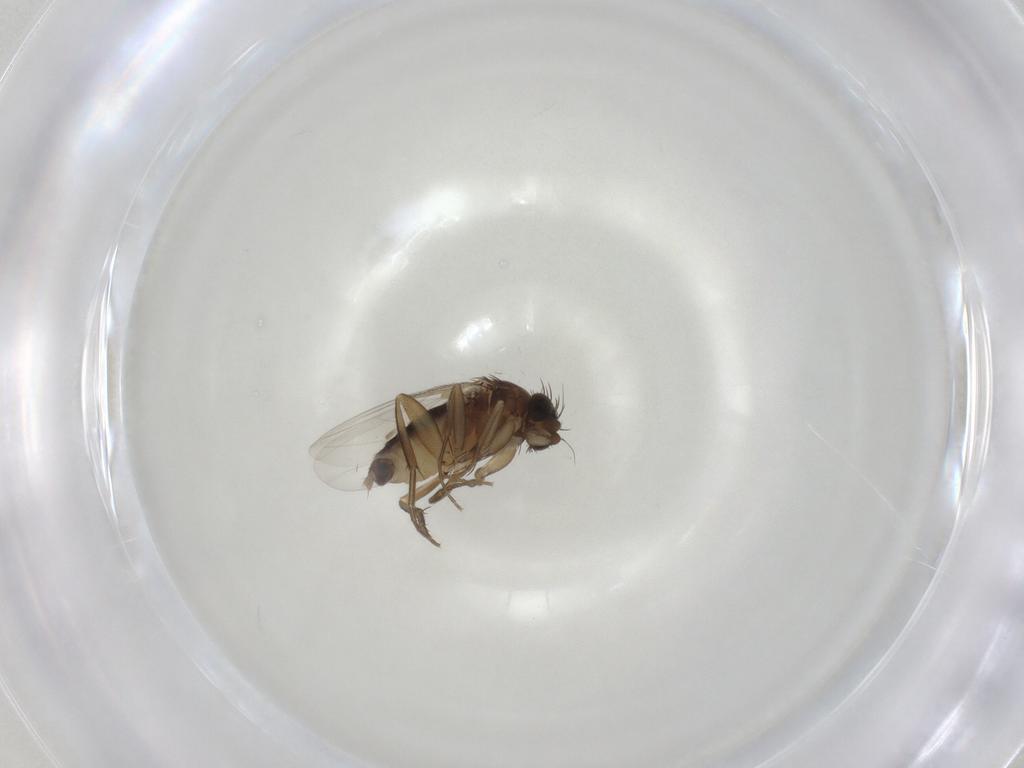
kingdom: Animalia
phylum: Arthropoda
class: Insecta
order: Diptera
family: Phoridae
